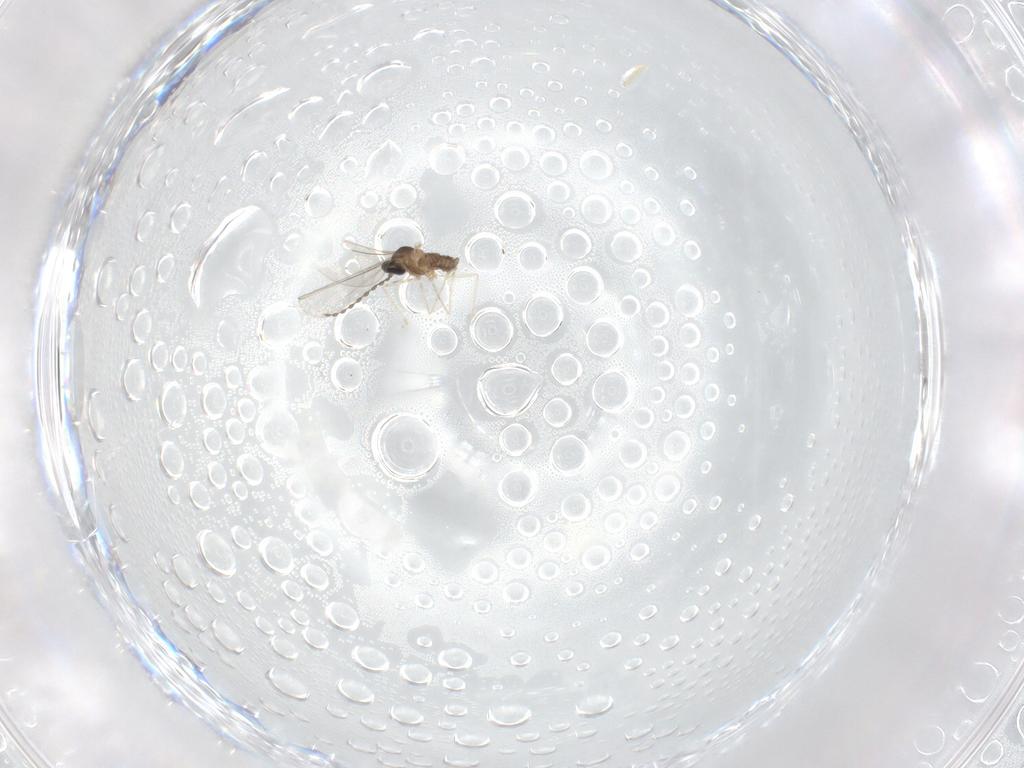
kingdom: Animalia
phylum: Arthropoda
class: Insecta
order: Diptera
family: Cecidomyiidae
